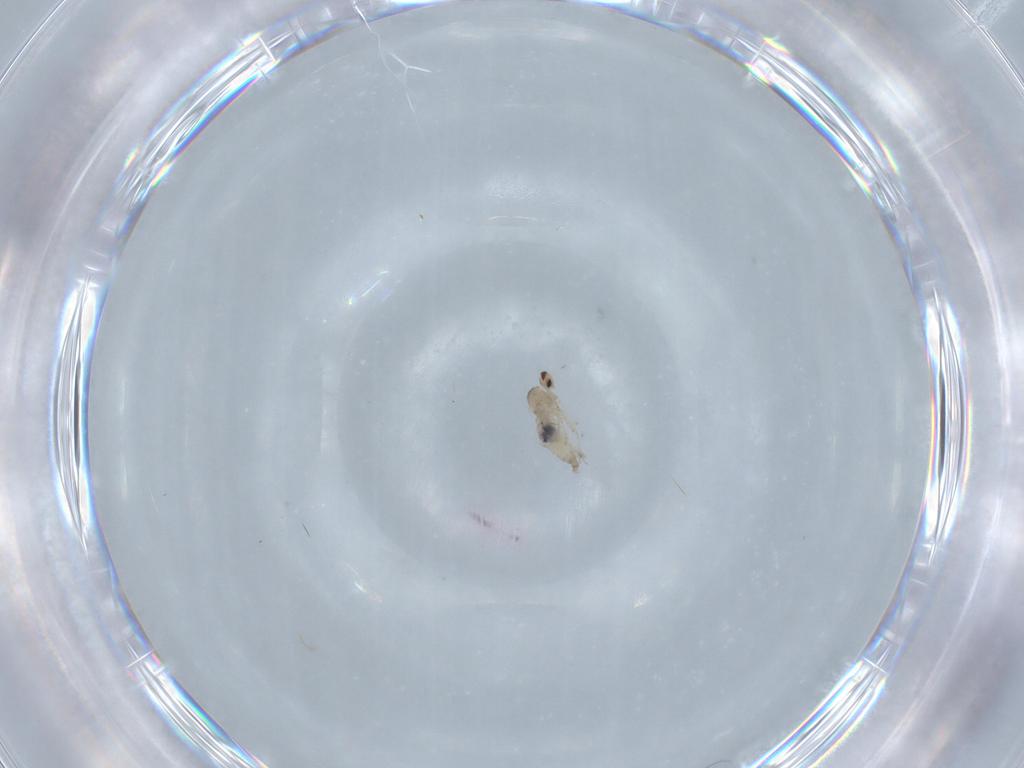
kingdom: Animalia
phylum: Arthropoda
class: Insecta
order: Diptera
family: Cecidomyiidae
